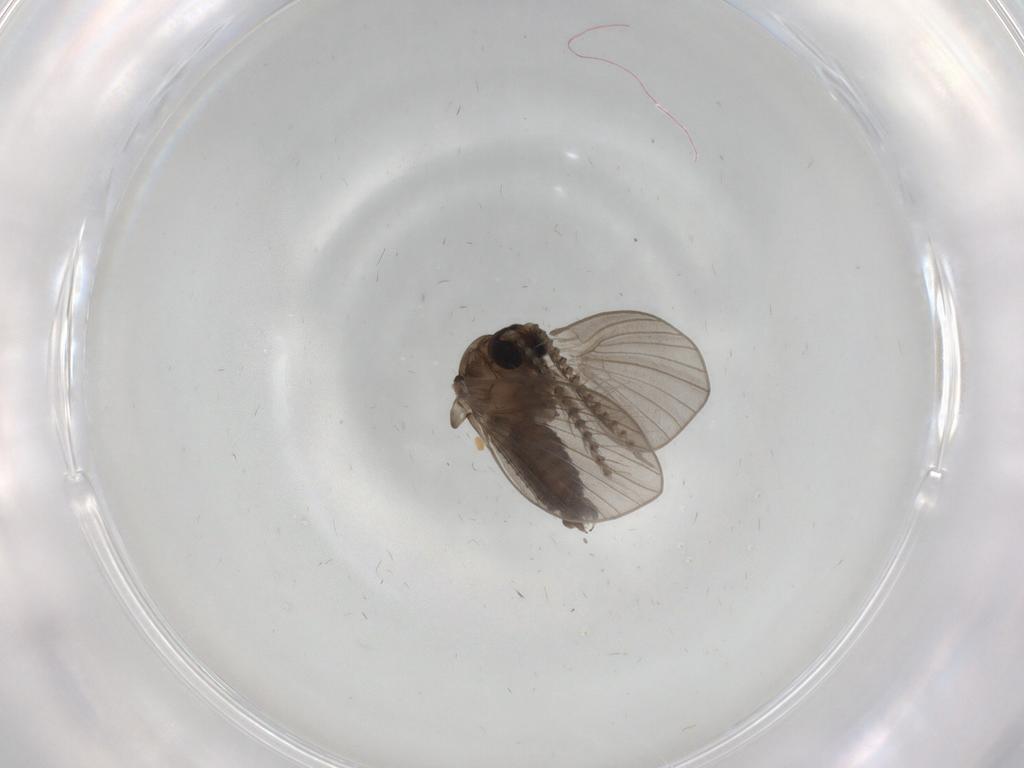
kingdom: Animalia
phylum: Arthropoda
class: Insecta
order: Diptera
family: Psychodidae
